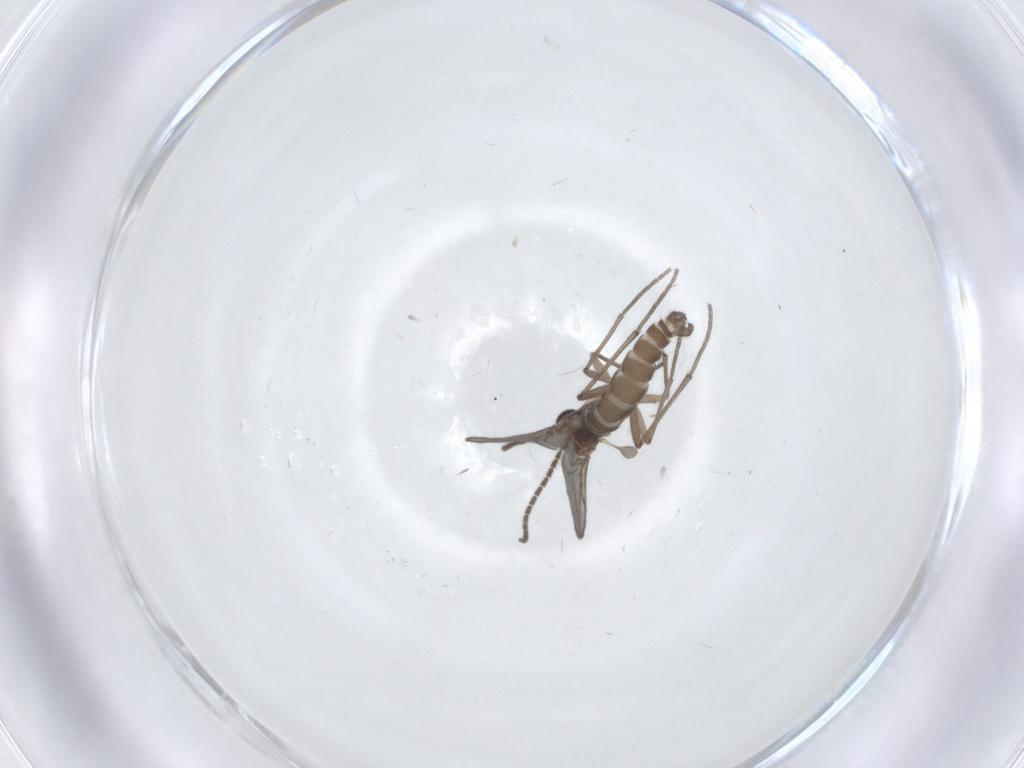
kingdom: Animalia
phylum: Arthropoda
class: Insecta
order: Diptera
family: Sciaridae
